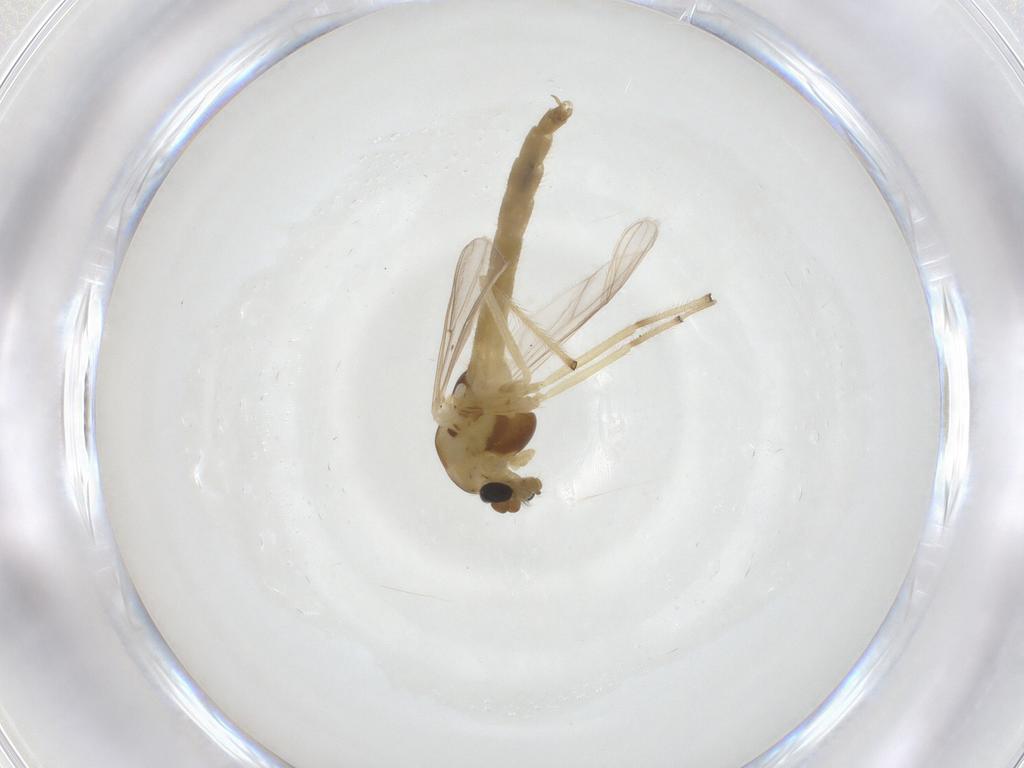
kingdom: Animalia
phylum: Arthropoda
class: Insecta
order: Diptera
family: Chironomidae
